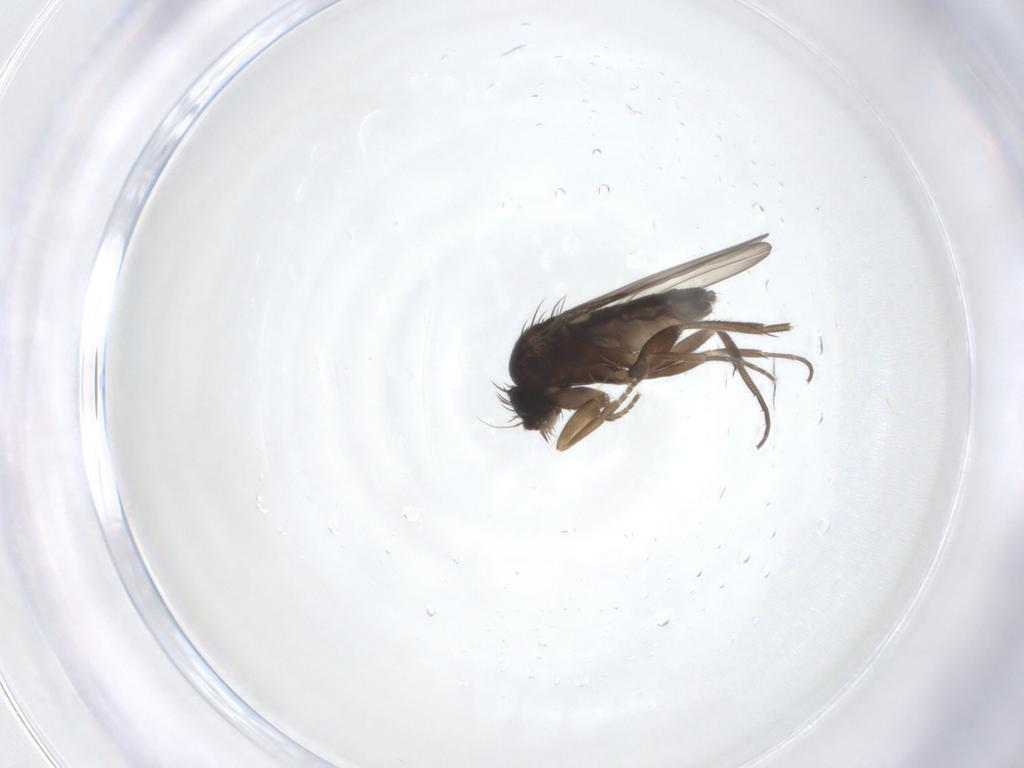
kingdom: Animalia
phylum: Arthropoda
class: Insecta
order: Diptera
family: Phoridae
